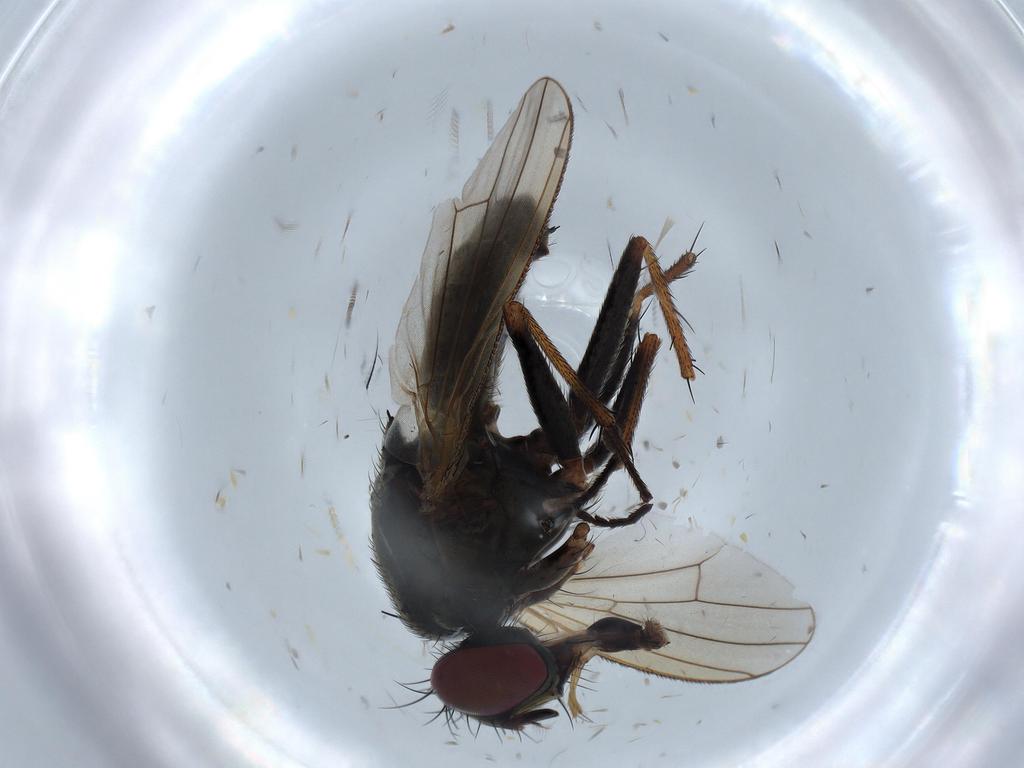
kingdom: Animalia
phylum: Arthropoda
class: Insecta
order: Diptera
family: Muscidae
